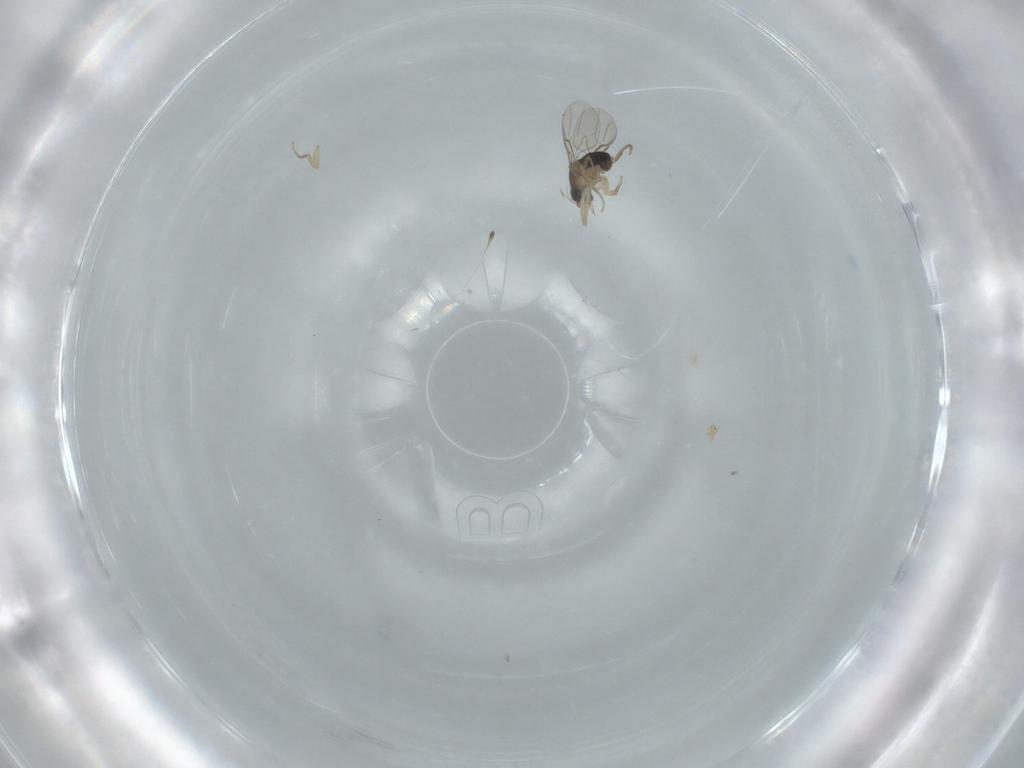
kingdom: Animalia
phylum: Arthropoda
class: Insecta
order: Diptera
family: Phoridae
